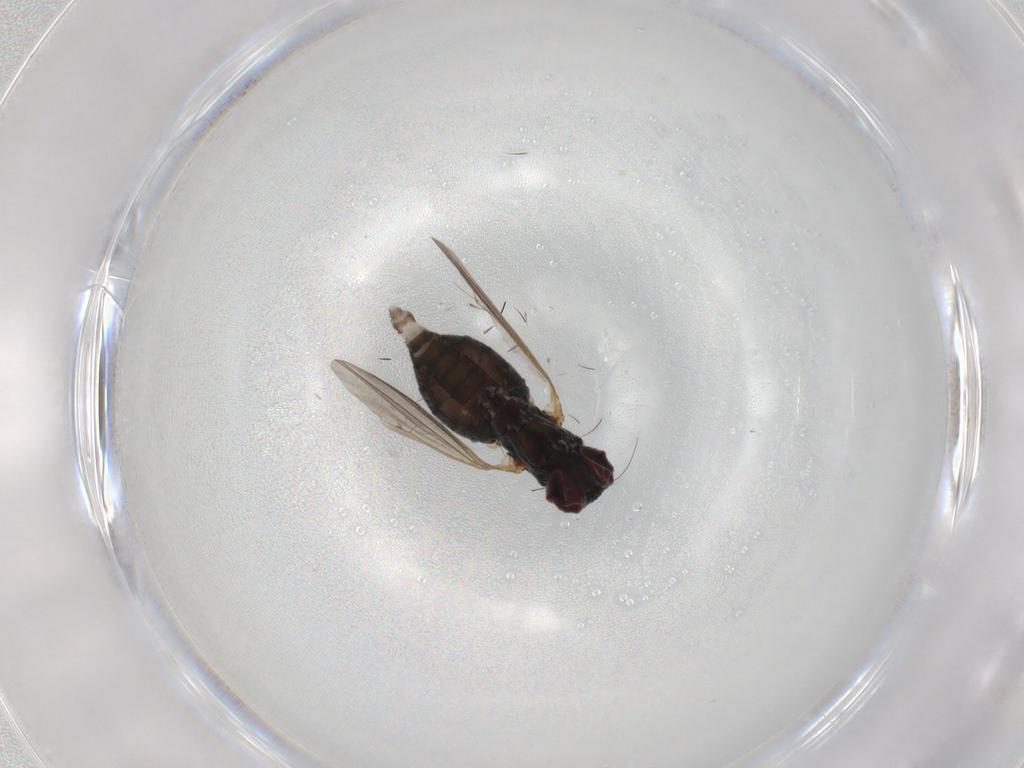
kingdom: Animalia
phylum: Arthropoda
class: Insecta
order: Diptera
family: Dolichopodidae
